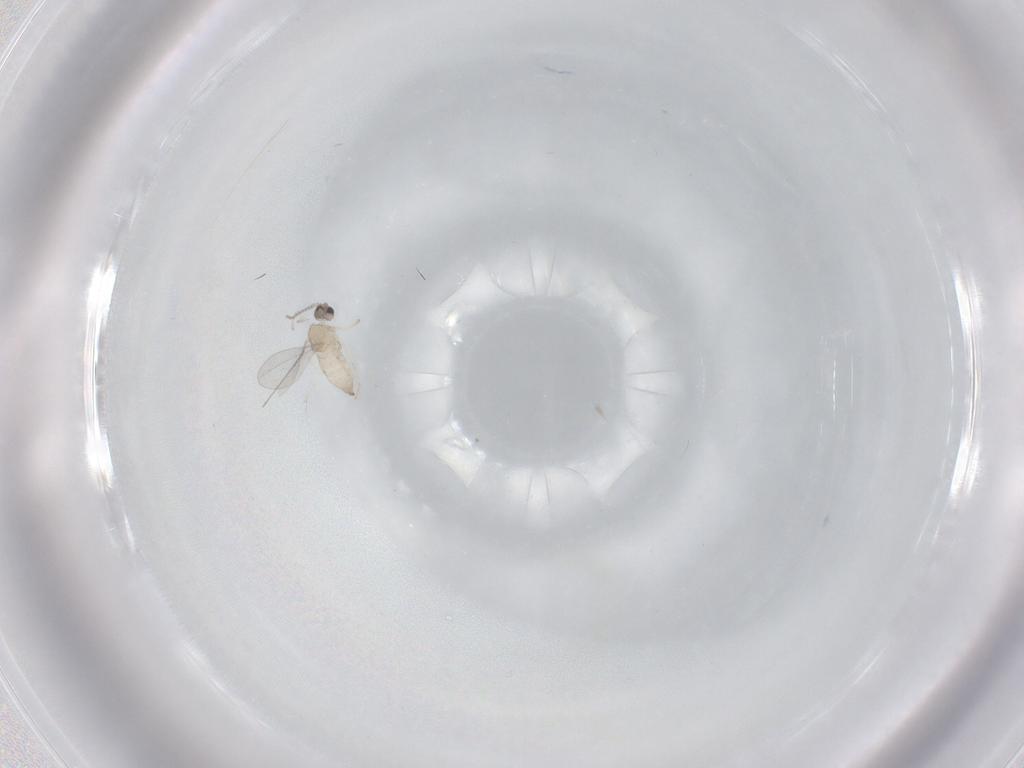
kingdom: Animalia
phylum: Arthropoda
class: Insecta
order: Diptera
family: Cecidomyiidae
